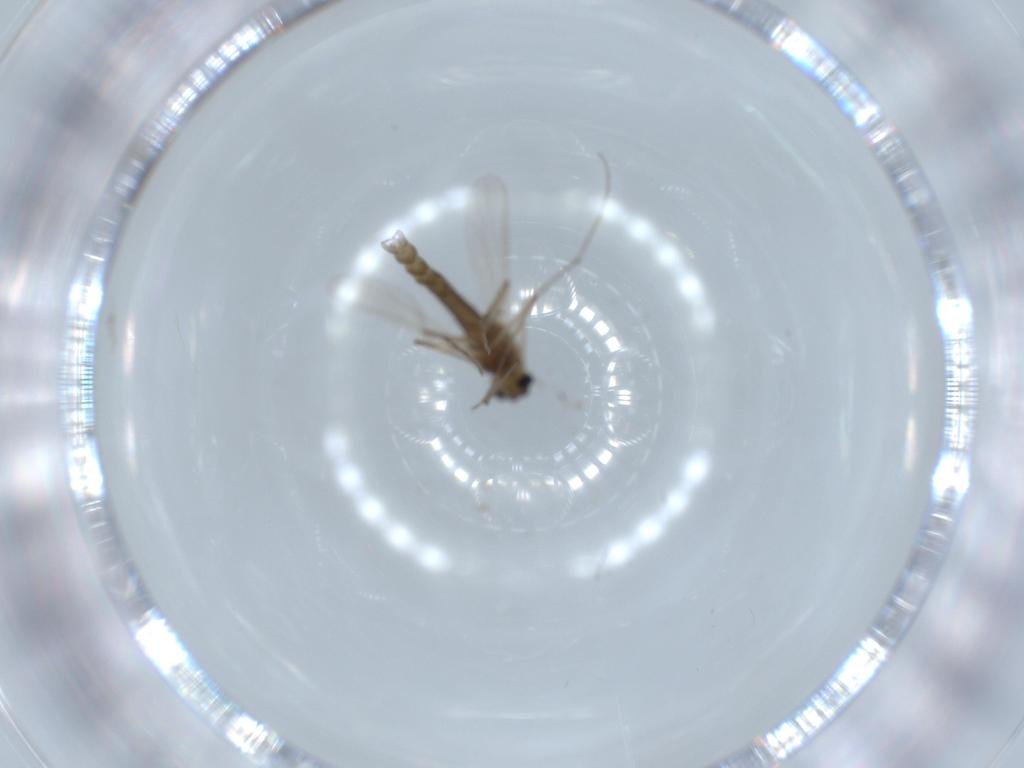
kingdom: Animalia
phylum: Arthropoda
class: Insecta
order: Diptera
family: Chironomidae
